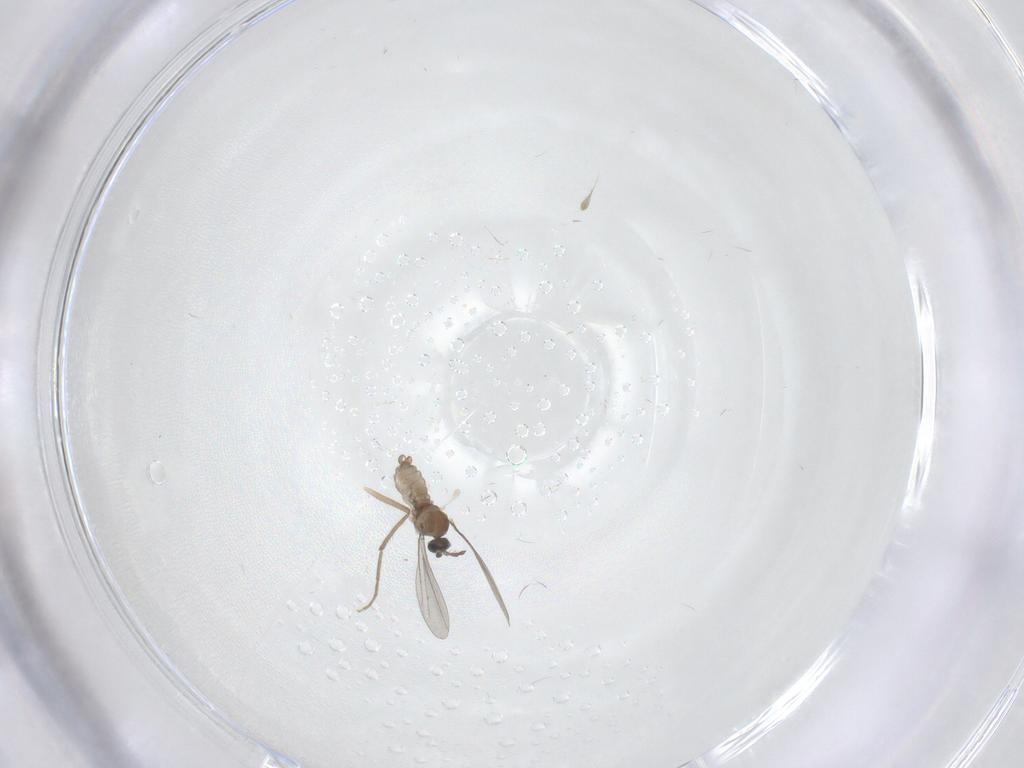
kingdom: Animalia
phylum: Arthropoda
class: Insecta
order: Diptera
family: Chironomidae
